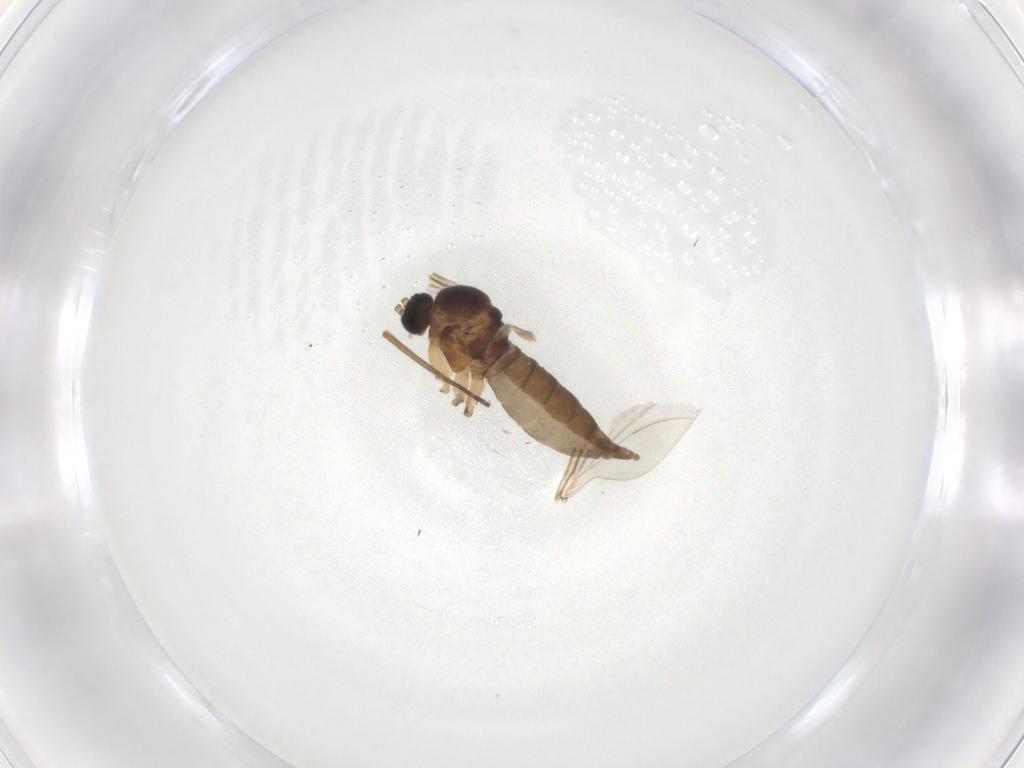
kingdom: Animalia
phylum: Arthropoda
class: Insecta
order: Diptera
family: Sciaridae
